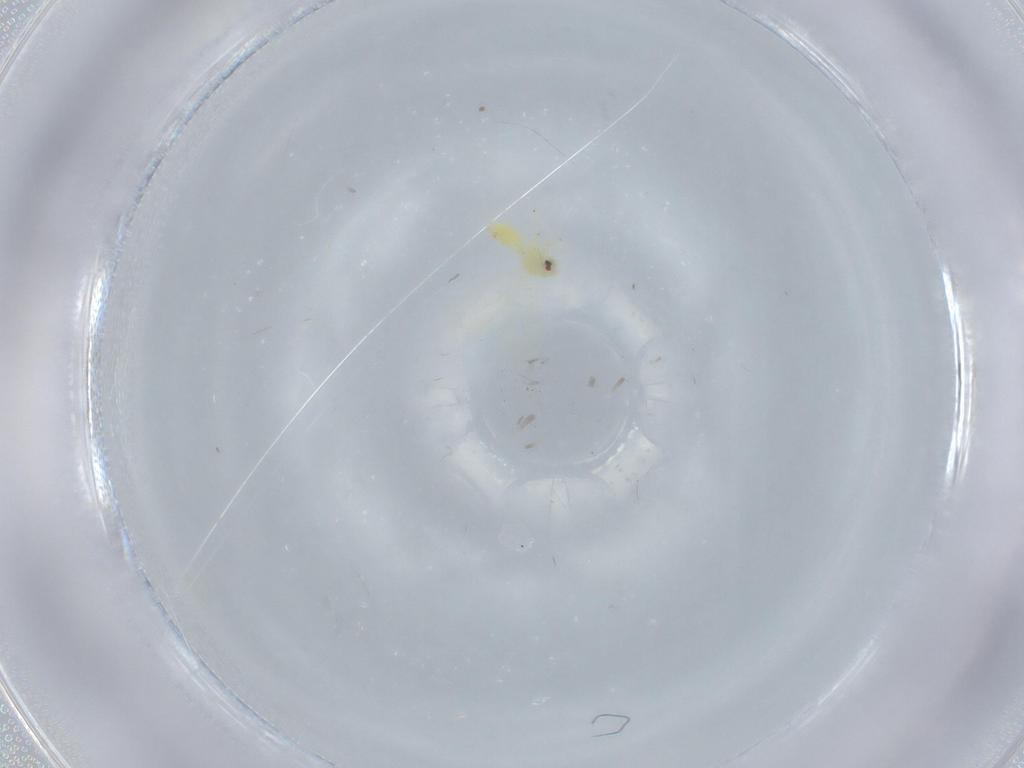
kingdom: Animalia
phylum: Arthropoda
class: Insecta
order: Hemiptera
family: Aleyrodidae
